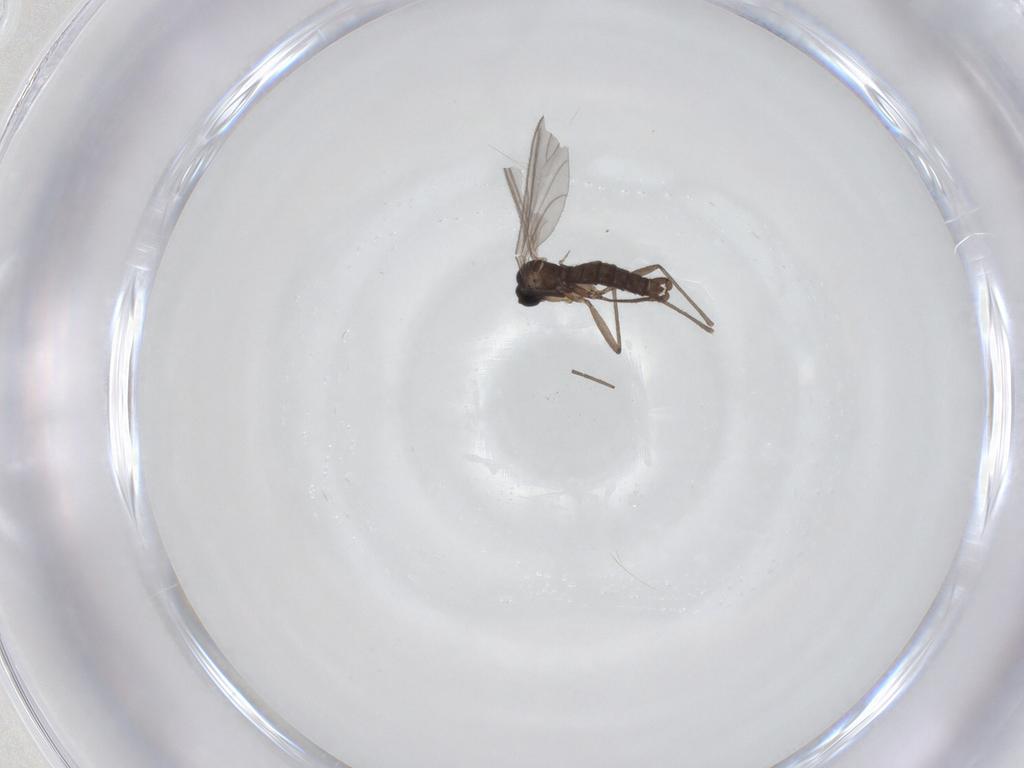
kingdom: Animalia
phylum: Arthropoda
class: Insecta
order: Diptera
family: Sciaridae
